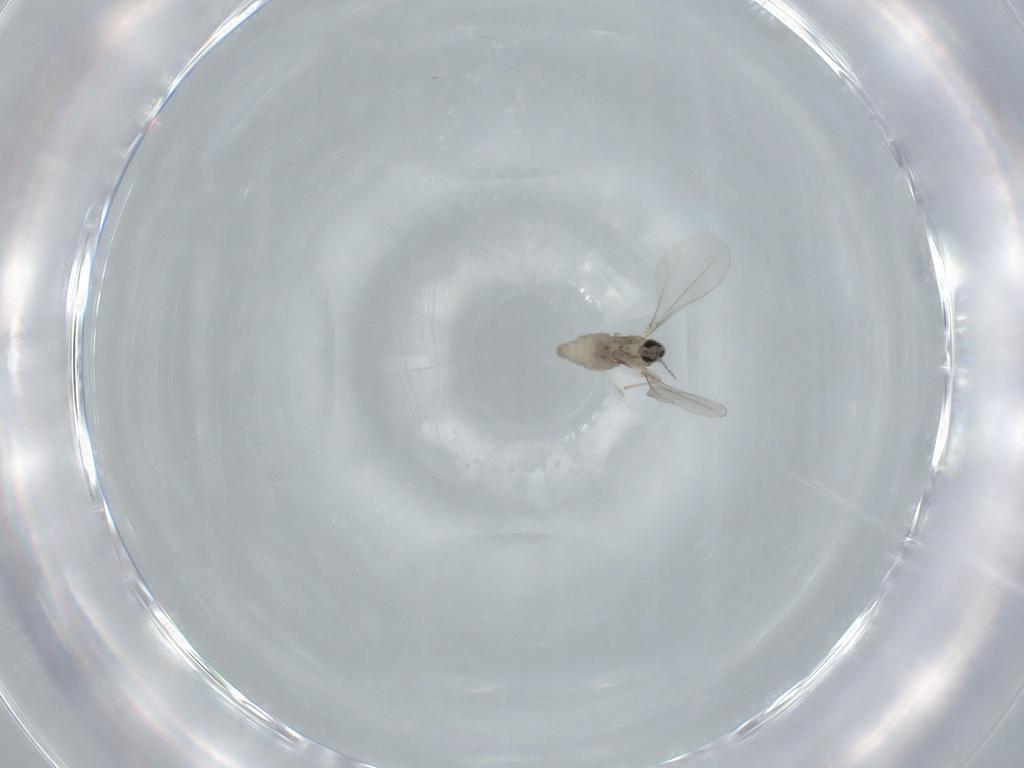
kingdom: Animalia
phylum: Arthropoda
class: Insecta
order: Diptera
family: Cecidomyiidae
